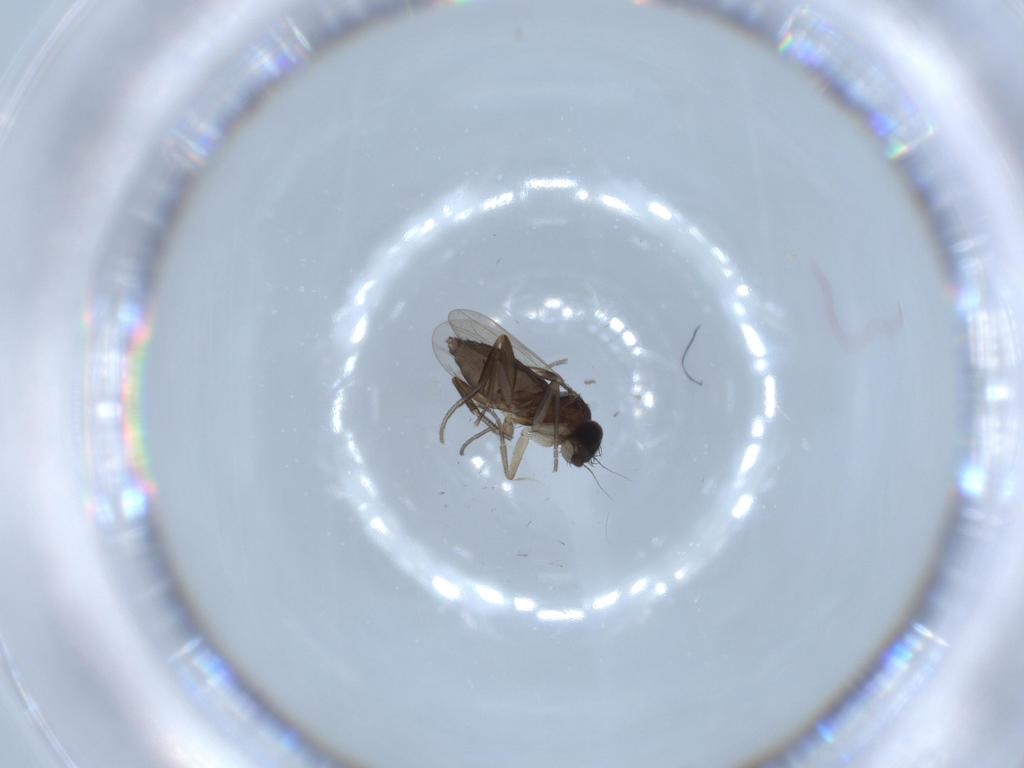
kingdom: Animalia
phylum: Arthropoda
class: Insecta
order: Diptera
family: Phoridae
